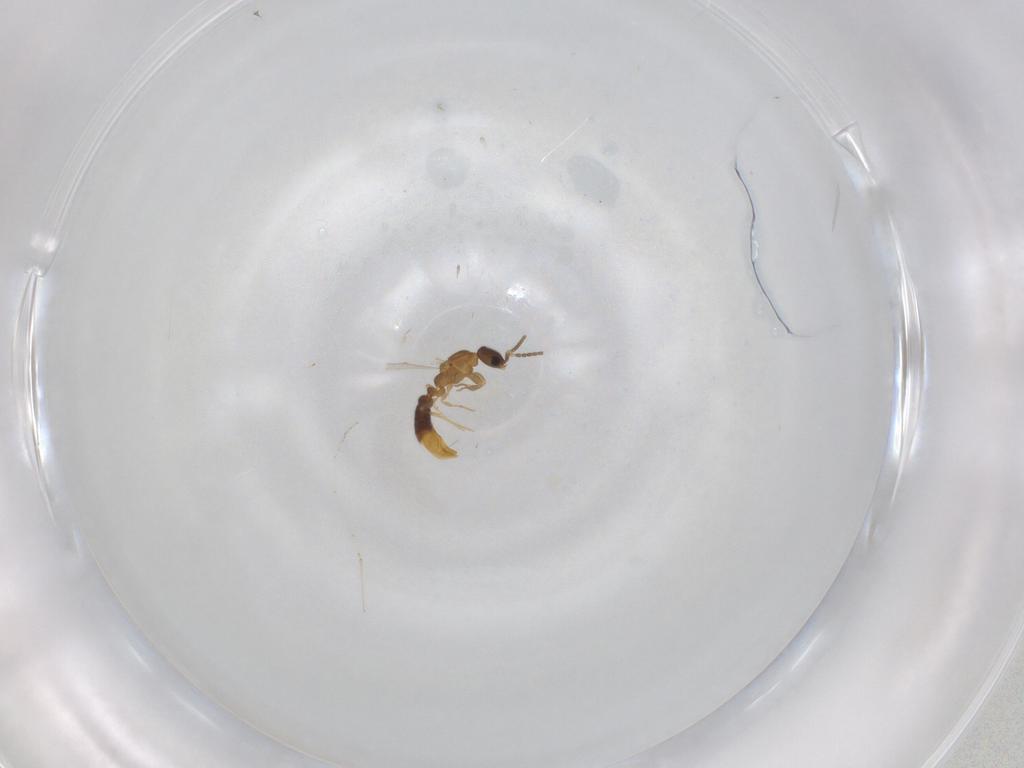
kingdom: Animalia
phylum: Arthropoda
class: Insecta
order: Hymenoptera
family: Formicidae
